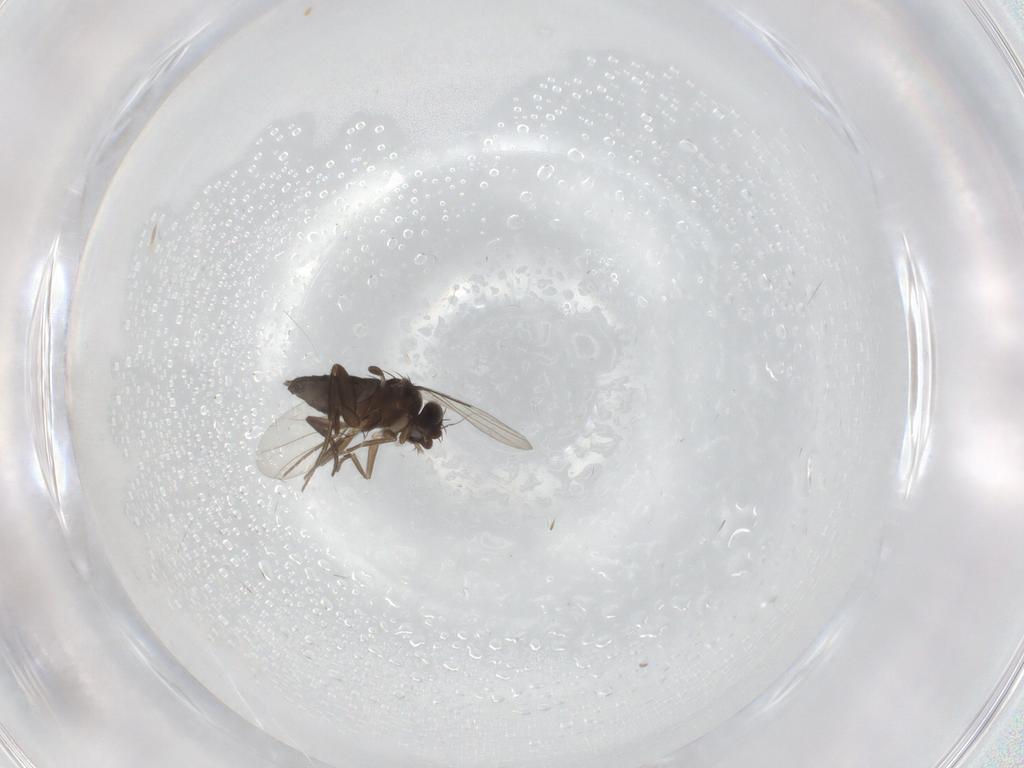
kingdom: Animalia
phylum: Arthropoda
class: Insecta
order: Diptera
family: Phoridae
